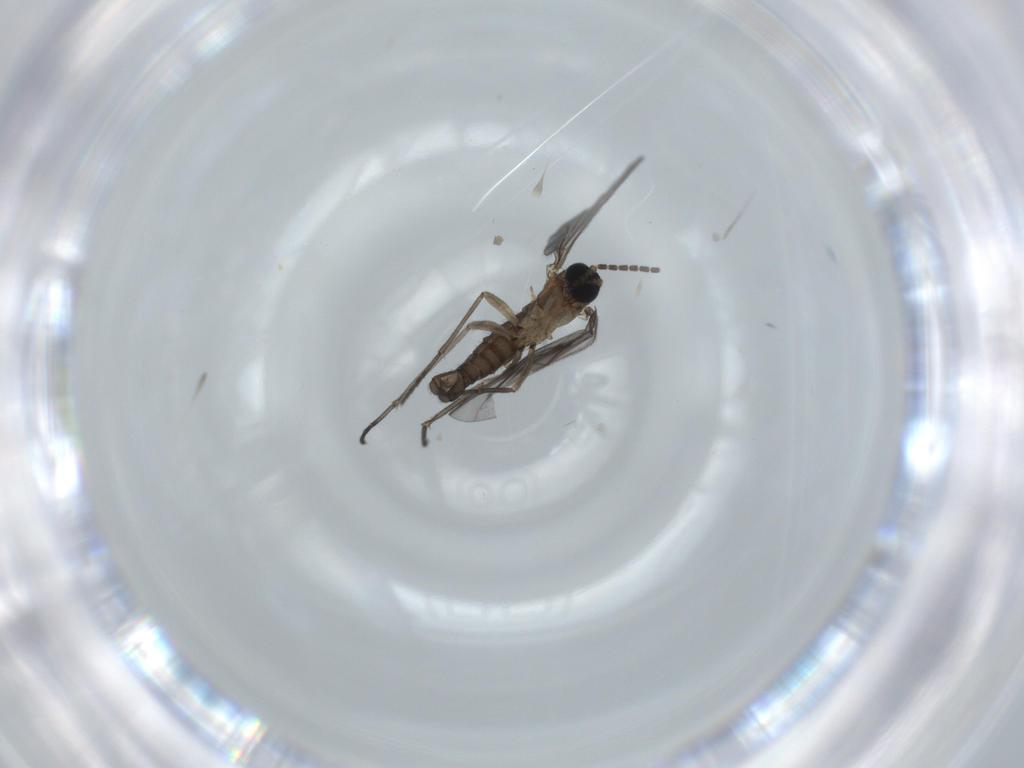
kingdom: Animalia
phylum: Arthropoda
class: Insecta
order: Diptera
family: Sciaridae
